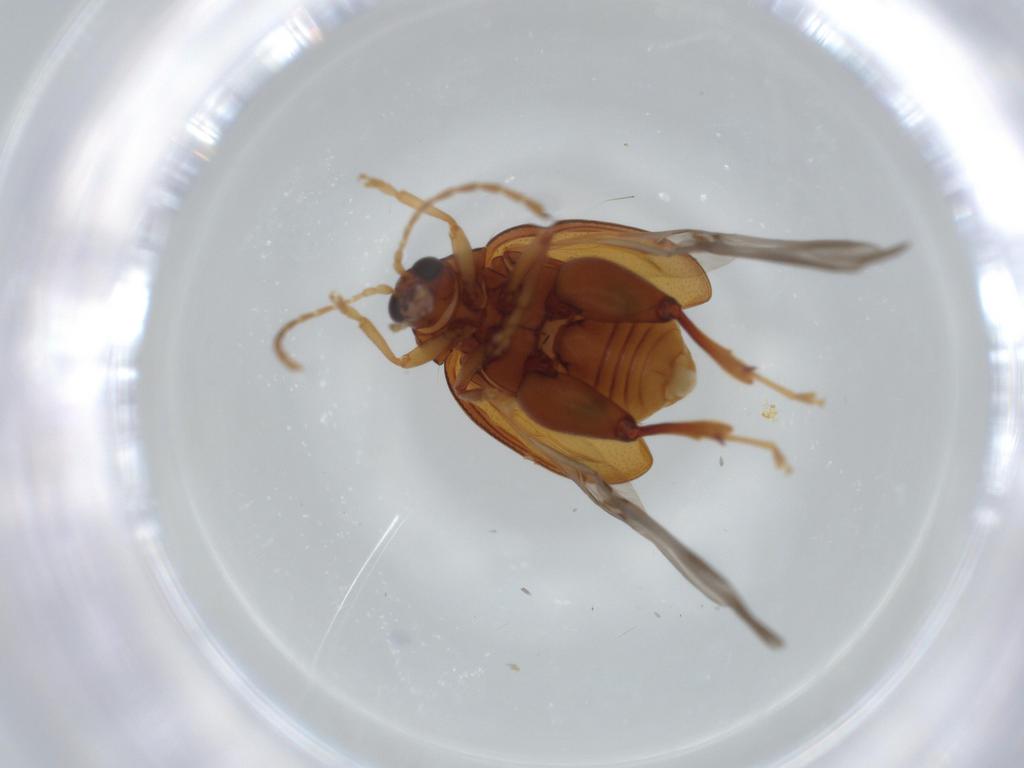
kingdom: Animalia
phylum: Arthropoda
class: Insecta
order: Coleoptera
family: Chrysomelidae
